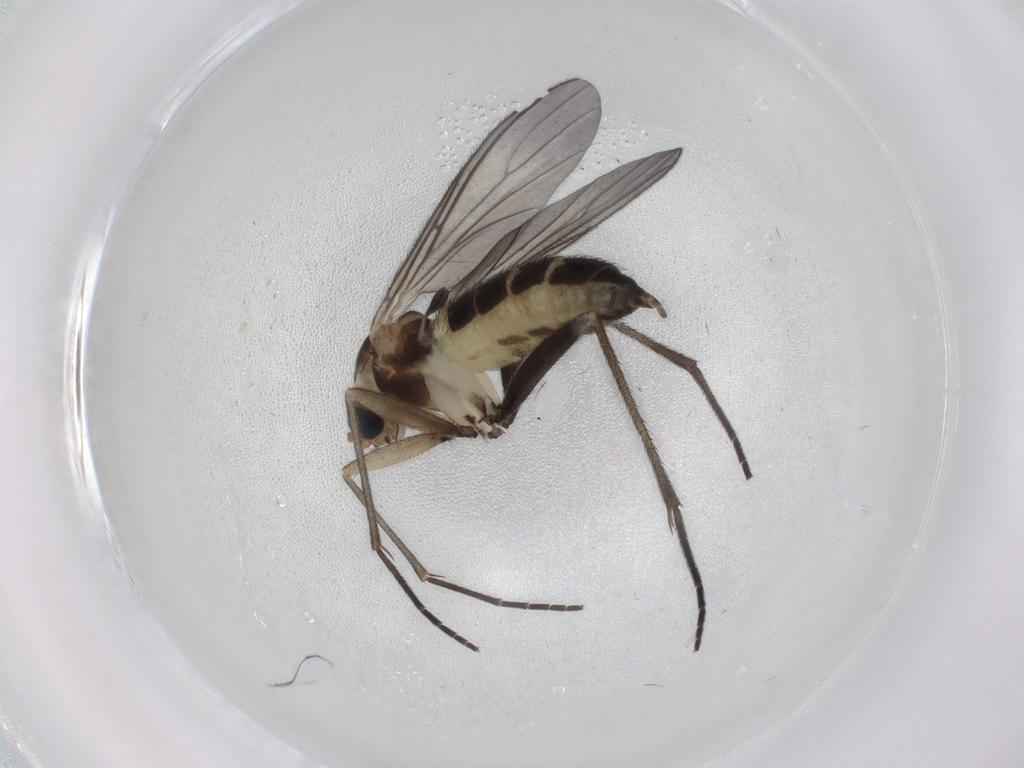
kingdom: Animalia
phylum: Arthropoda
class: Insecta
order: Diptera
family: Sciaridae
